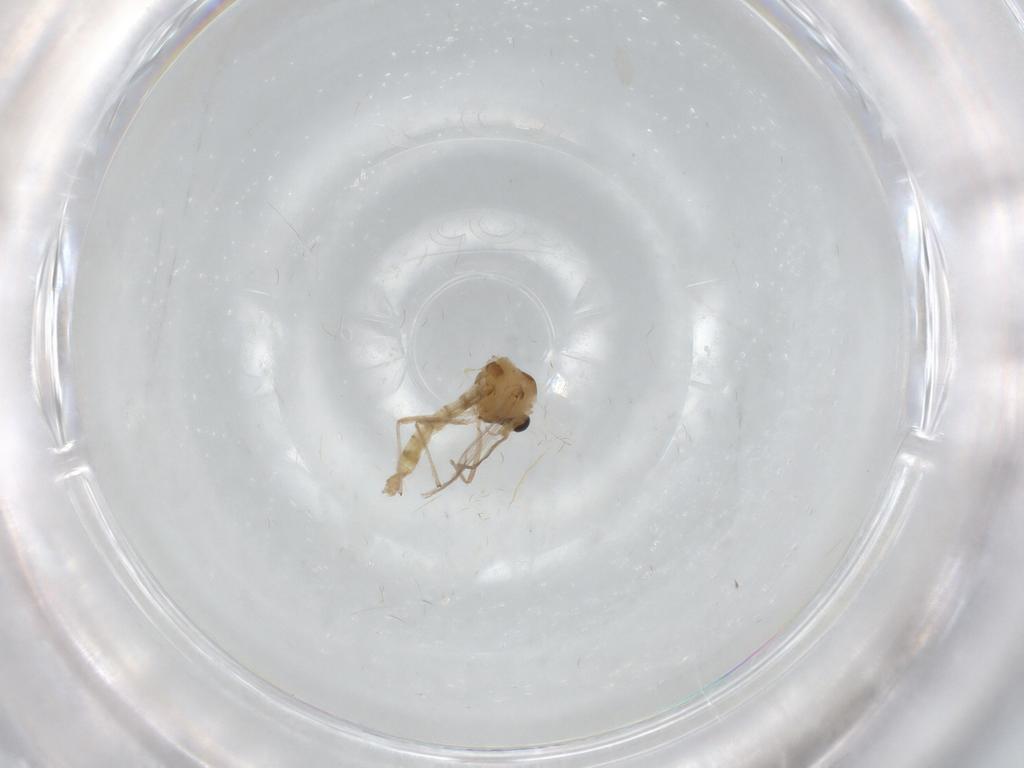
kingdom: Animalia
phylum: Arthropoda
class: Insecta
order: Diptera
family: Chironomidae
